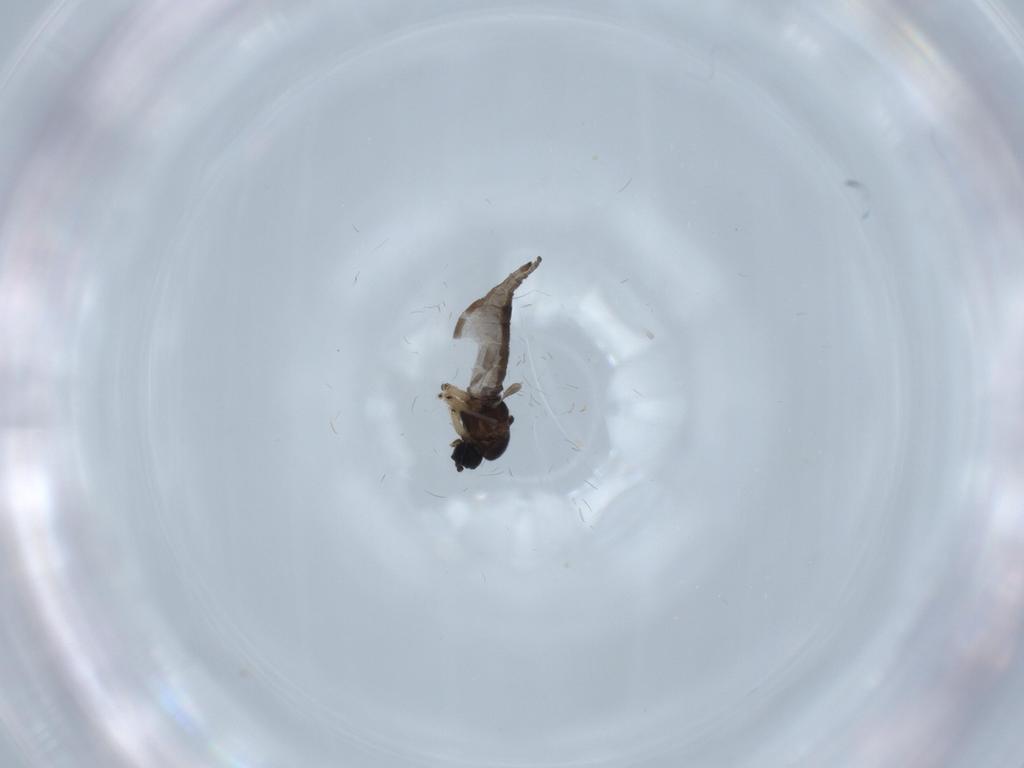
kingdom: Animalia
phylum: Arthropoda
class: Insecta
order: Diptera
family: Sciaridae
